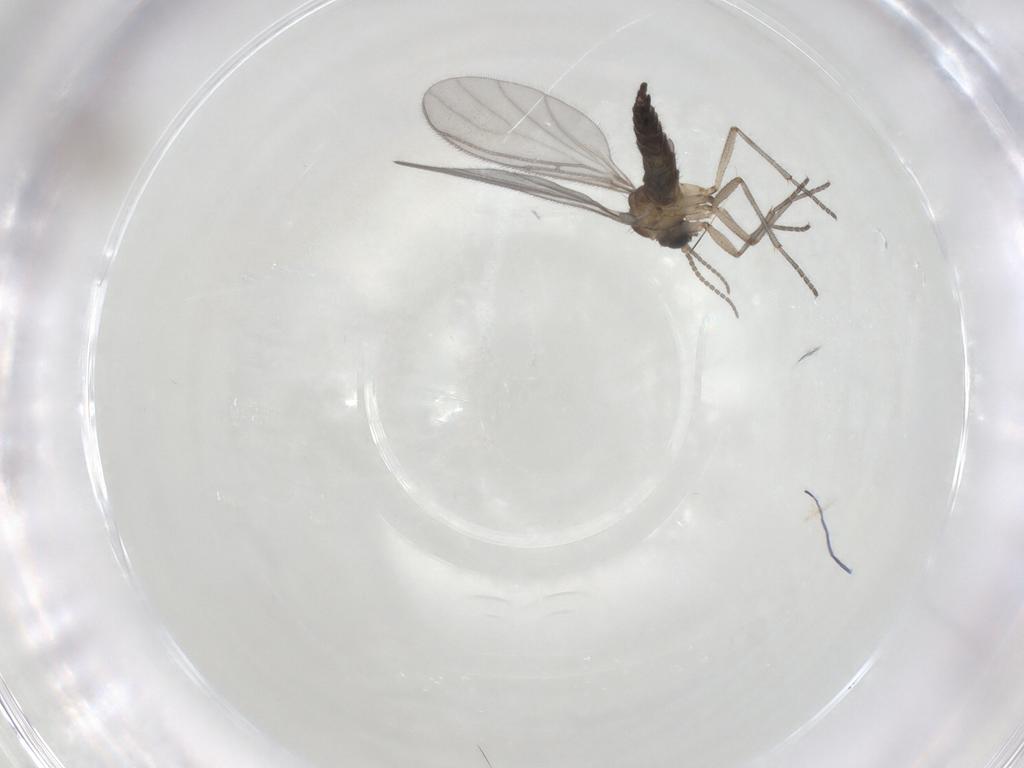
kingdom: Animalia
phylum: Arthropoda
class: Insecta
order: Diptera
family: Sciaridae
